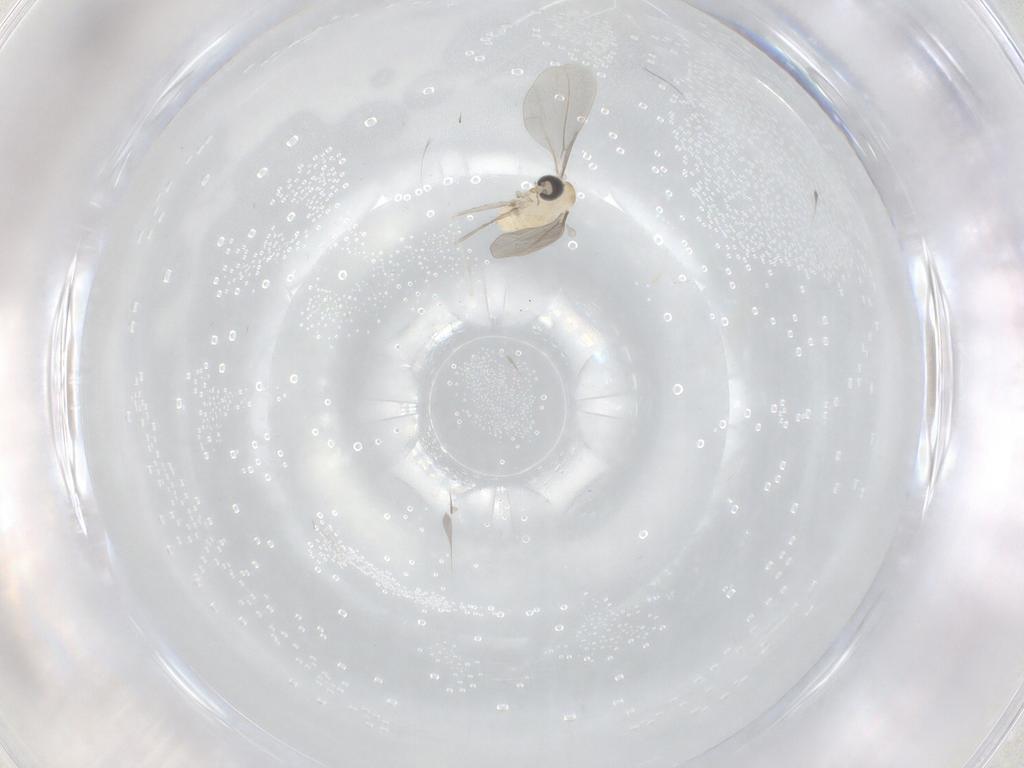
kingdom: Animalia
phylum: Arthropoda
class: Insecta
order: Diptera
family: Cecidomyiidae
